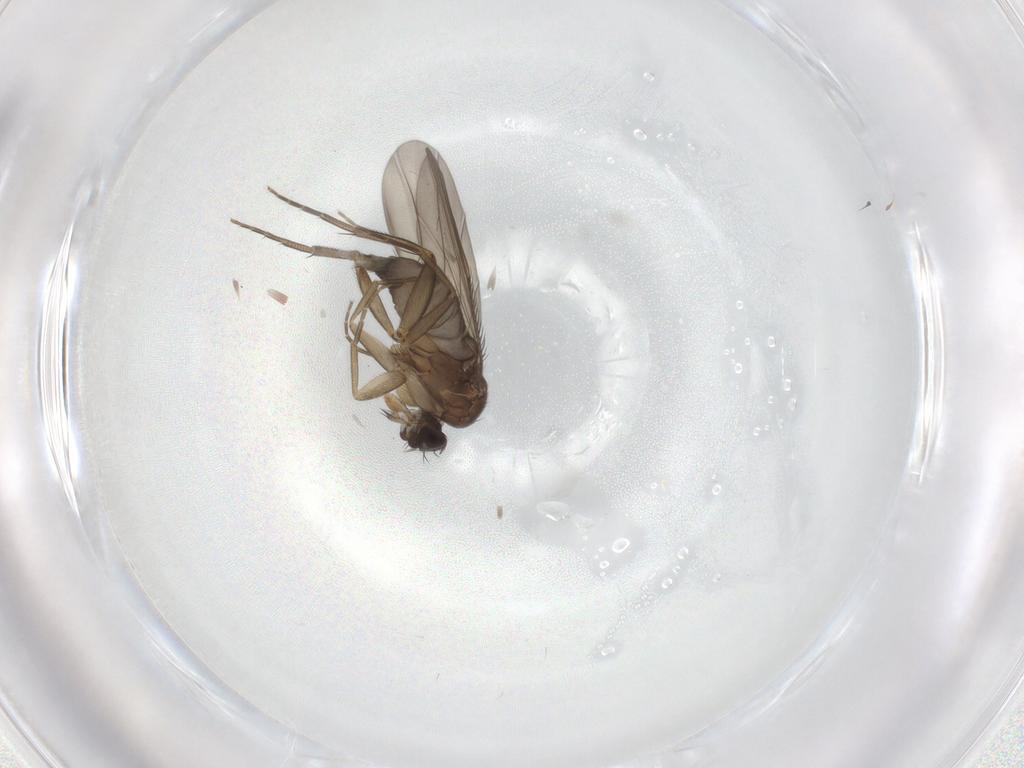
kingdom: Animalia
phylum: Arthropoda
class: Insecta
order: Diptera
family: Phoridae
